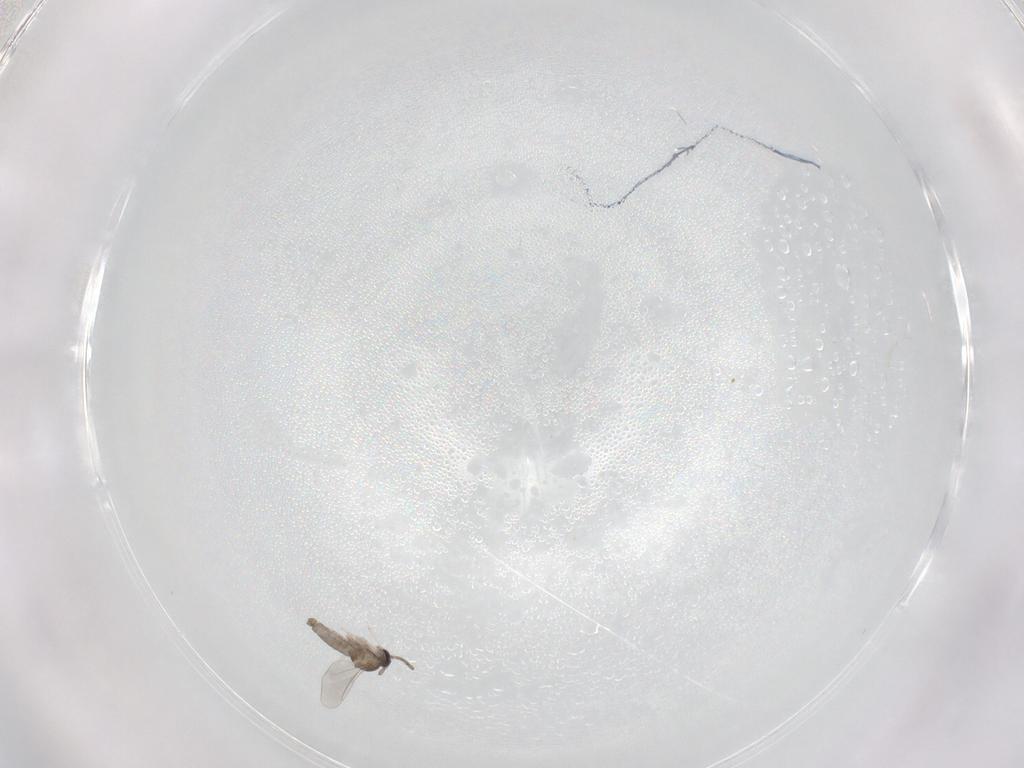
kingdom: Animalia
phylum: Arthropoda
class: Insecta
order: Diptera
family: Cecidomyiidae
